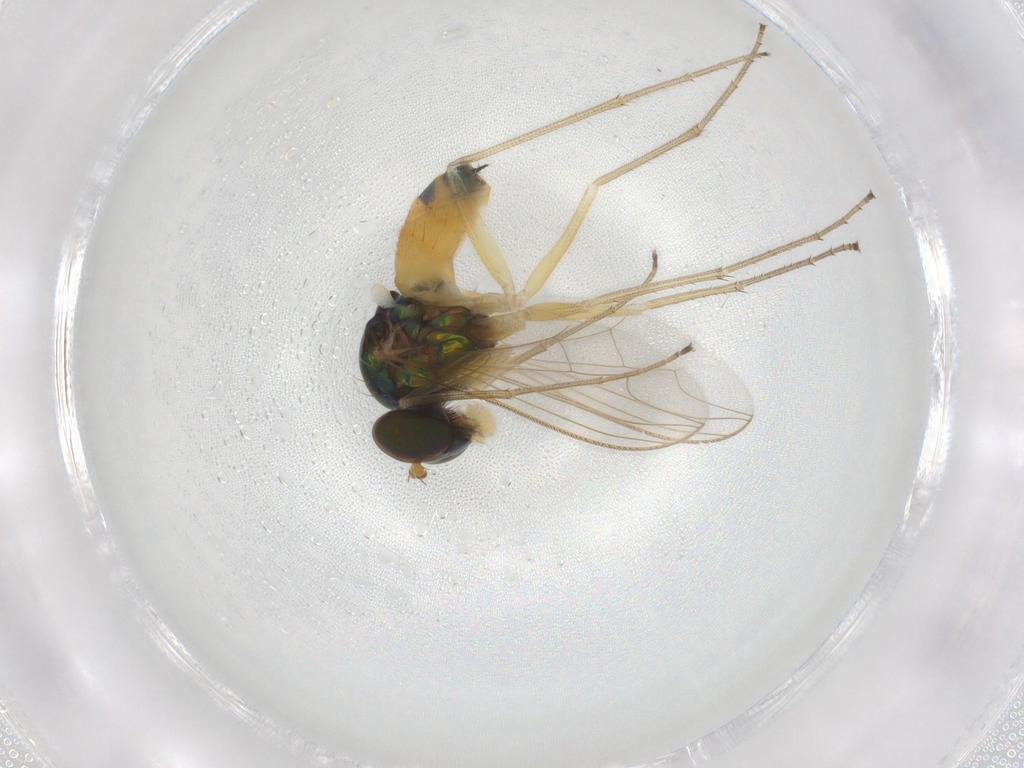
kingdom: Animalia
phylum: Arthropoda
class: Insecta
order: Diptera
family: Dolichopodidae
